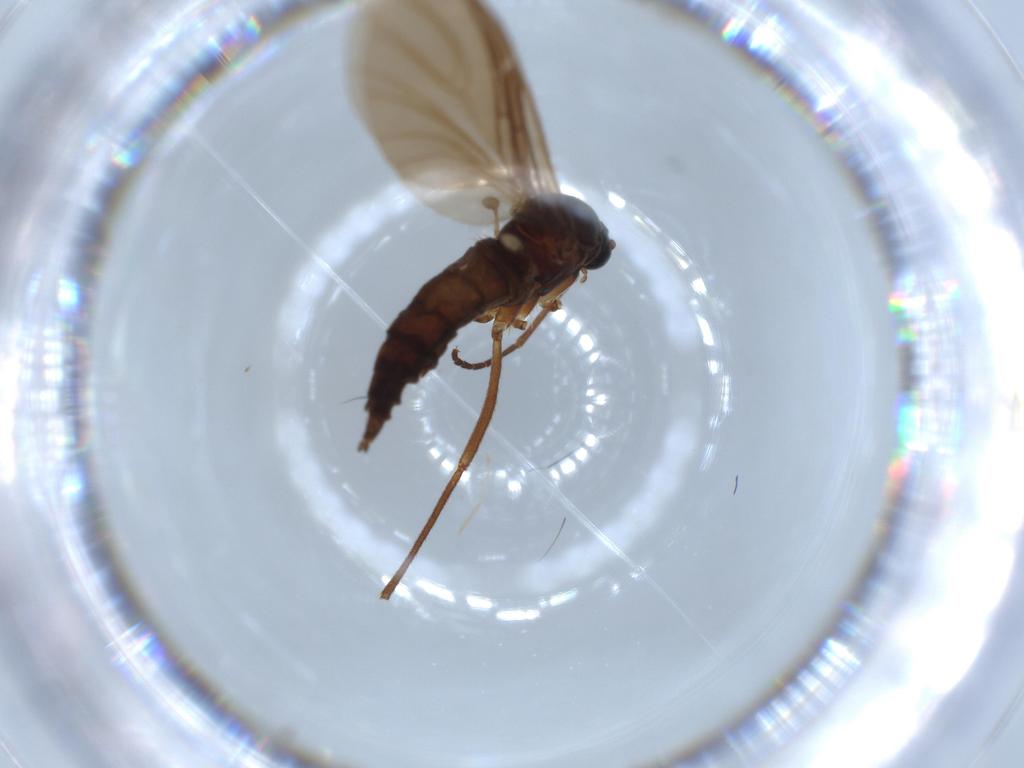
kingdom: Animalia
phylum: Arthropoda
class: Insecta
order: Diptera
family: Sciaridae
